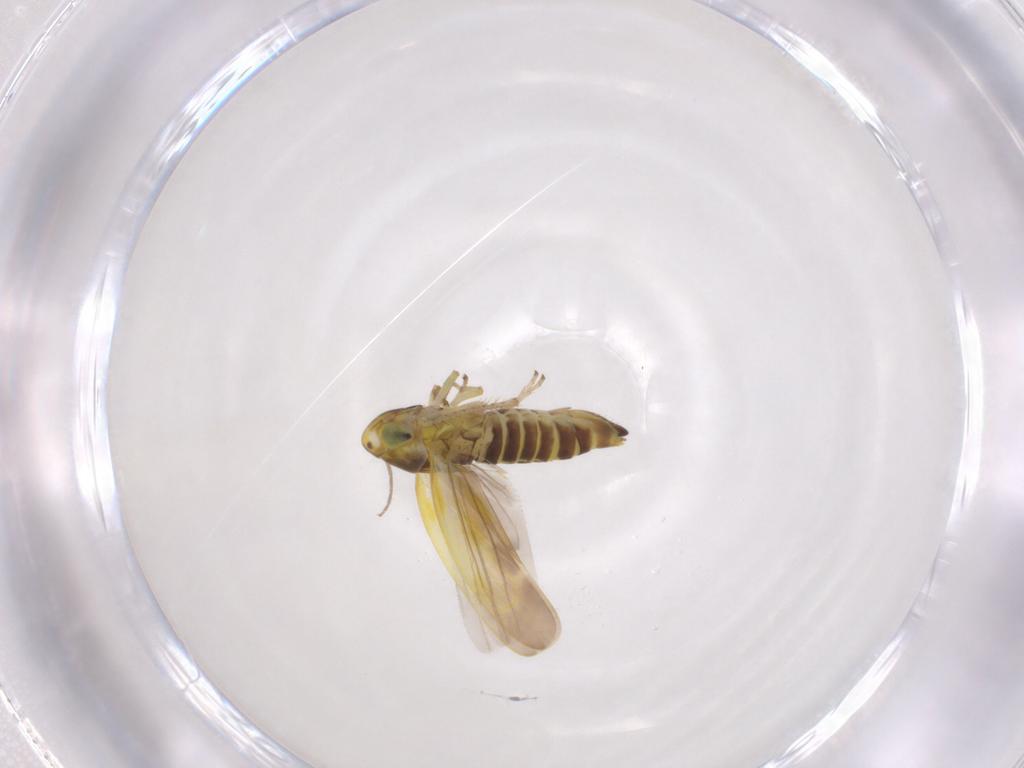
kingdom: Animalia
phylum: Arthropoda
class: Insecta
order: Hemiptera
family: Cicadellidae
